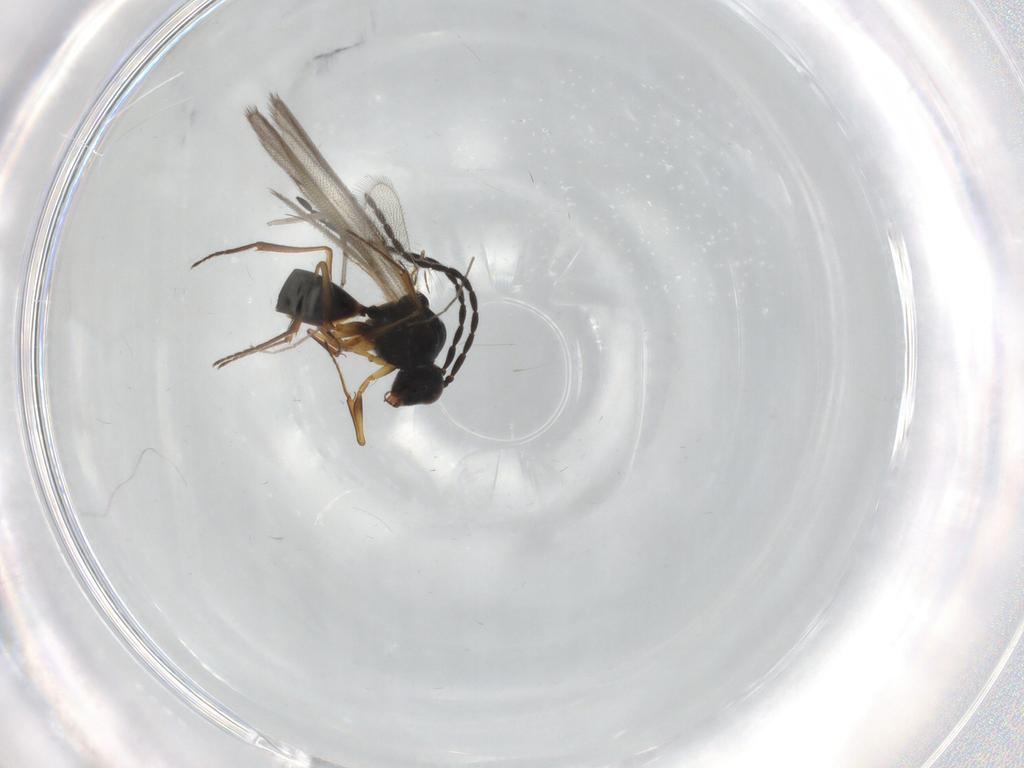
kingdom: Animalia
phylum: Arthropoda
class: Insecta
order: Hymenoptera
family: Figitidae
